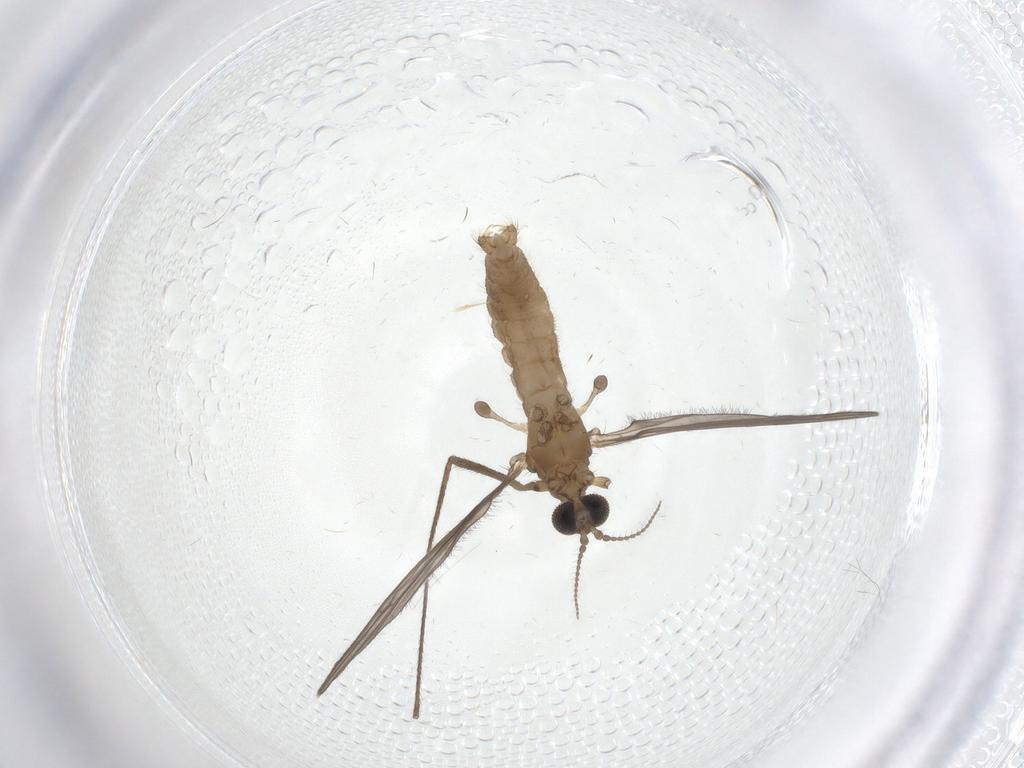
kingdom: Animalia
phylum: Arthropoda
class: Insecta
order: Diptera
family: Sphaeroceridae
